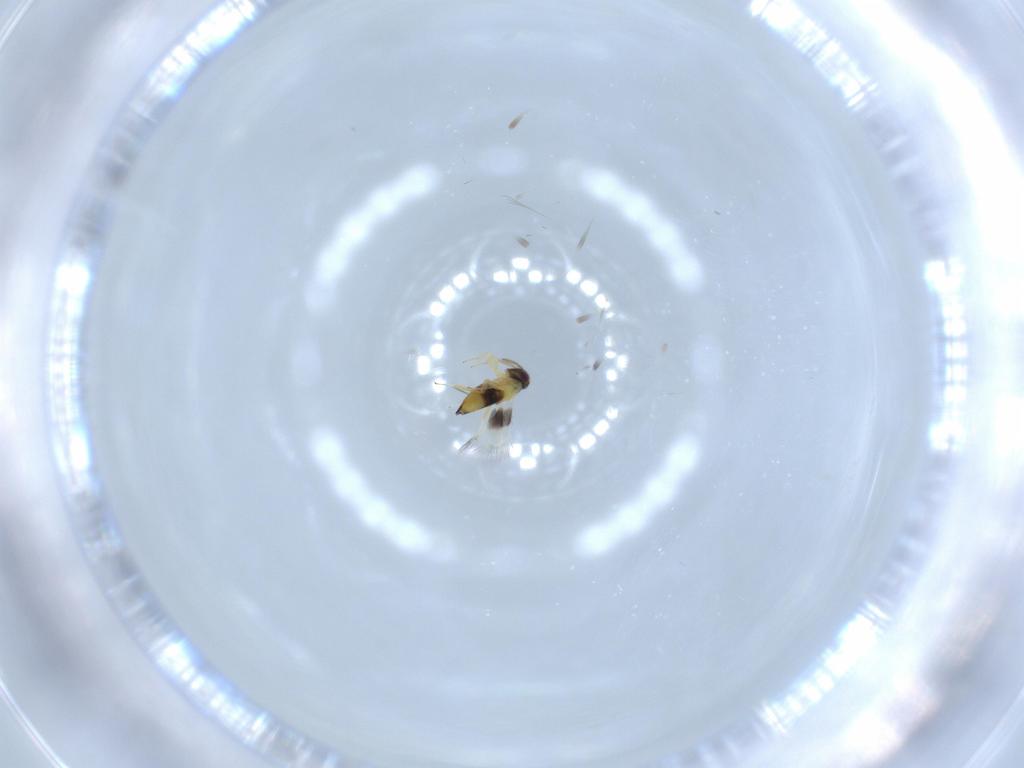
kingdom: Animalia
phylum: Arthropoda
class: Insecta
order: Hymenoptera
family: Signiphoridae
